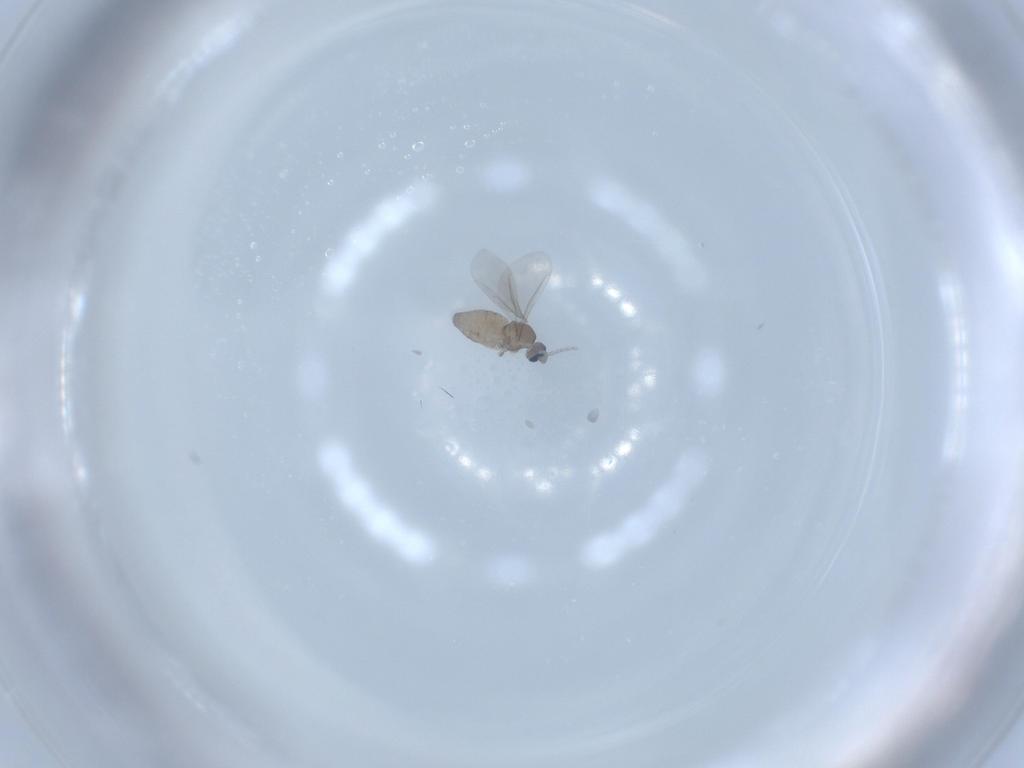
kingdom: Animalia
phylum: Arthropoda
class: Insecta
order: Diptera
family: Cecidomyiidae
